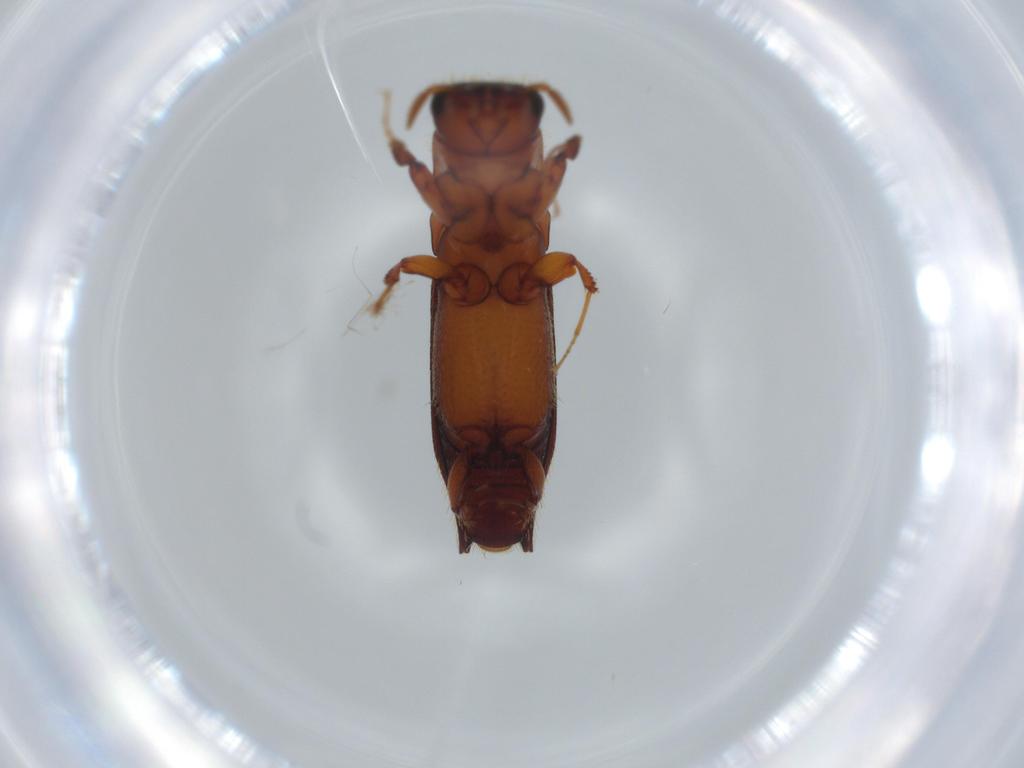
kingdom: Animalia
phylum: Arthropoda
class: Insecta
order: Coleoptera
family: Curculionidae
